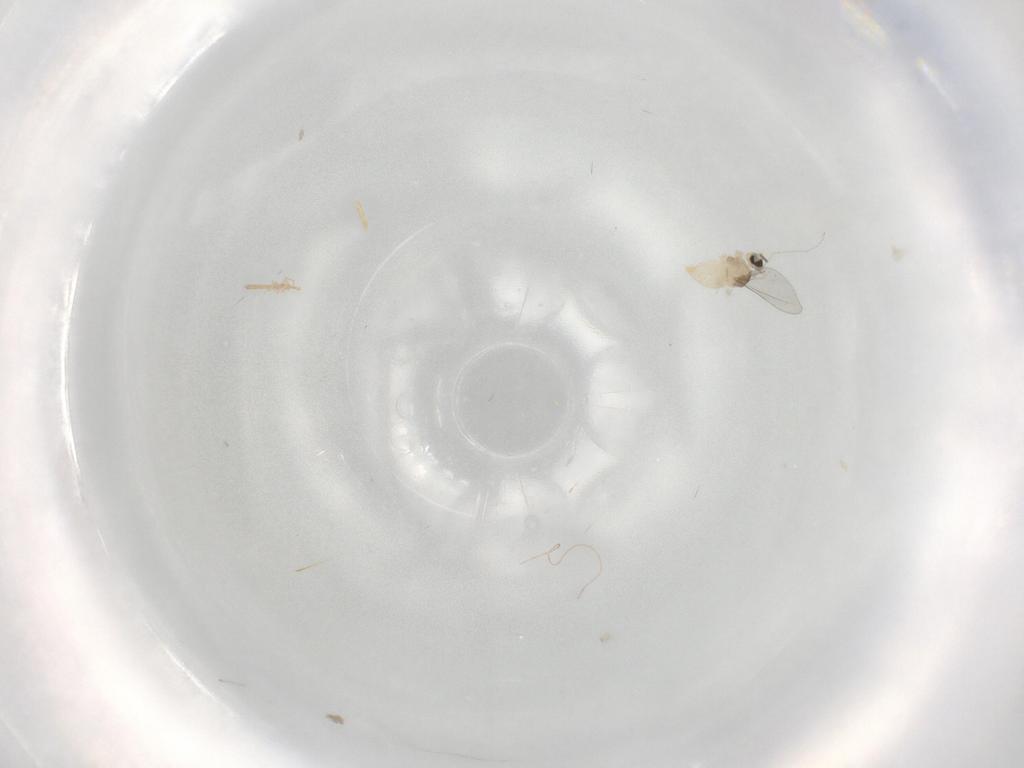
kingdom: Animalia
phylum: Arthropoda
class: Insecta
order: Diptera
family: Cecidomyiidae
